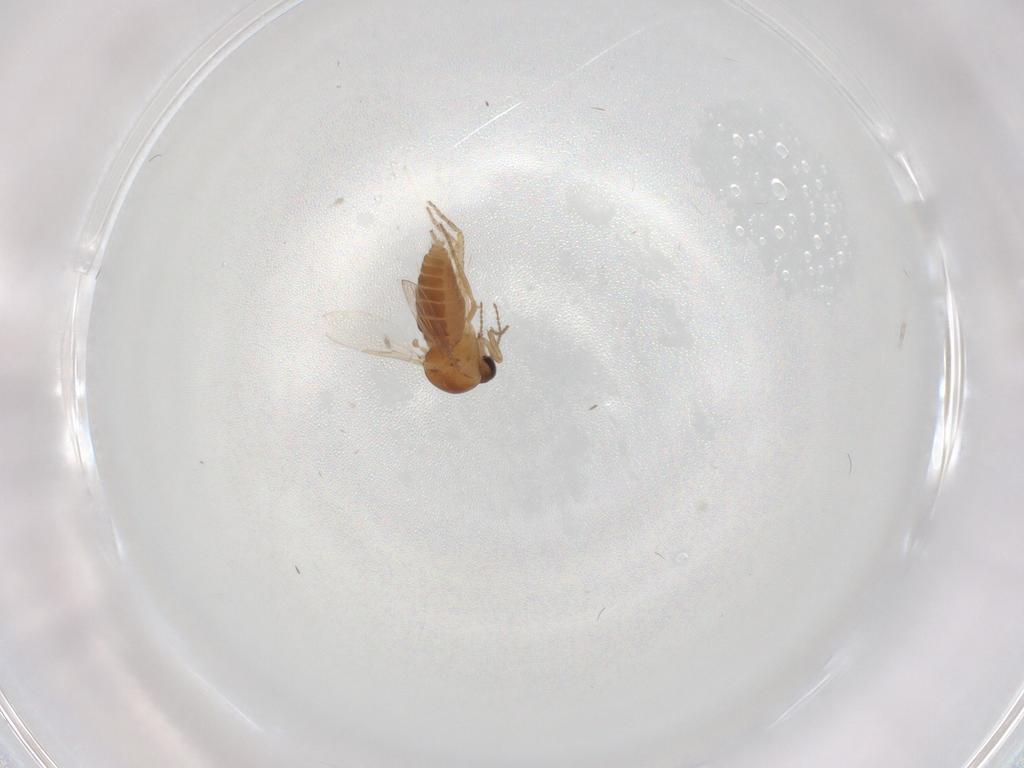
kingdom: Animalia
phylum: Arthropoda
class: Insecta
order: Diptera
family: Ceratopogonidae
